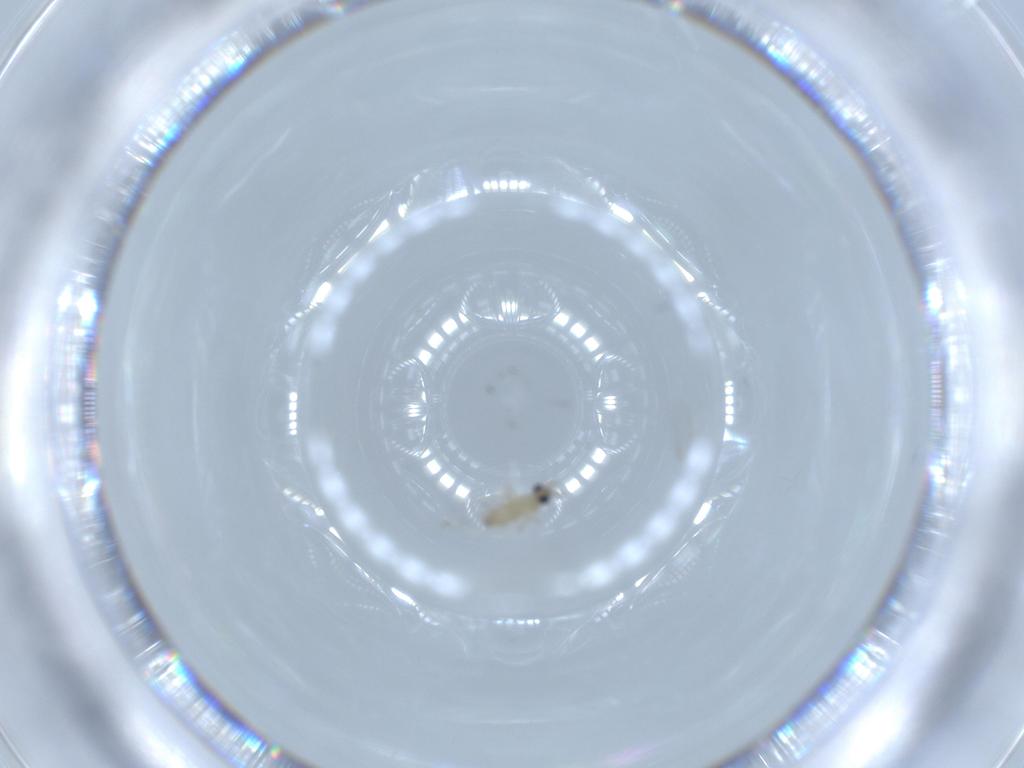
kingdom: Animalia
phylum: Arthropoda
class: Insecta
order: Diptera
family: Cecidomyiidae
